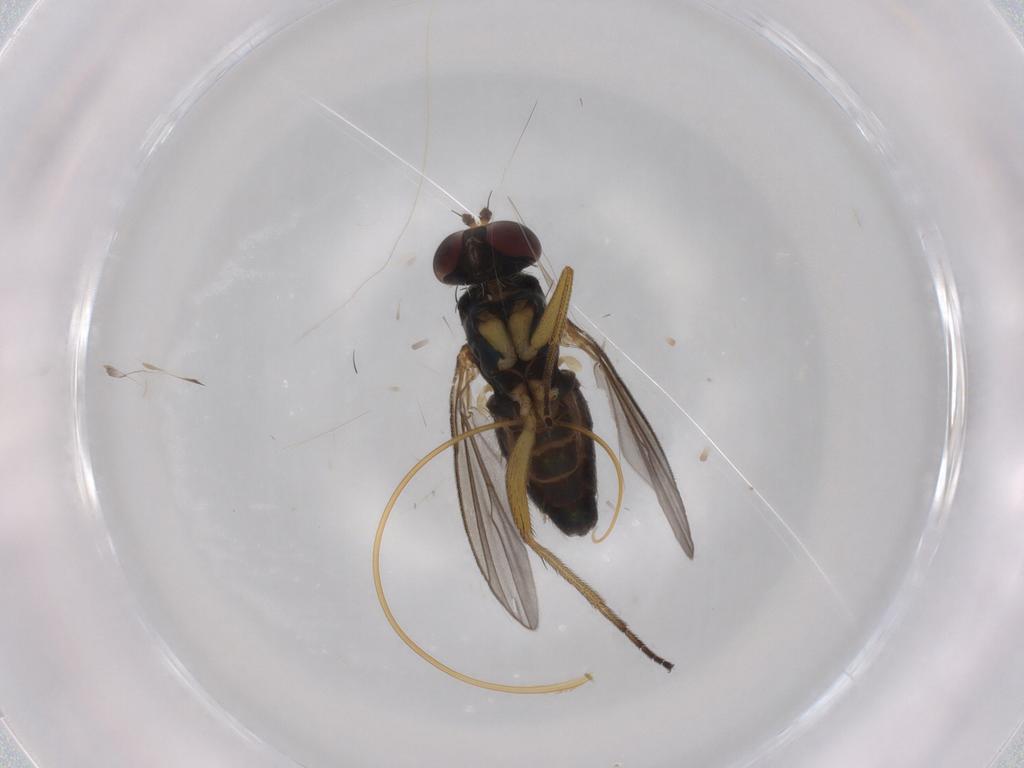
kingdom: Animalia
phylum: Arthropoda
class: Insecta
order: Diptera
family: Dolichopodidae
